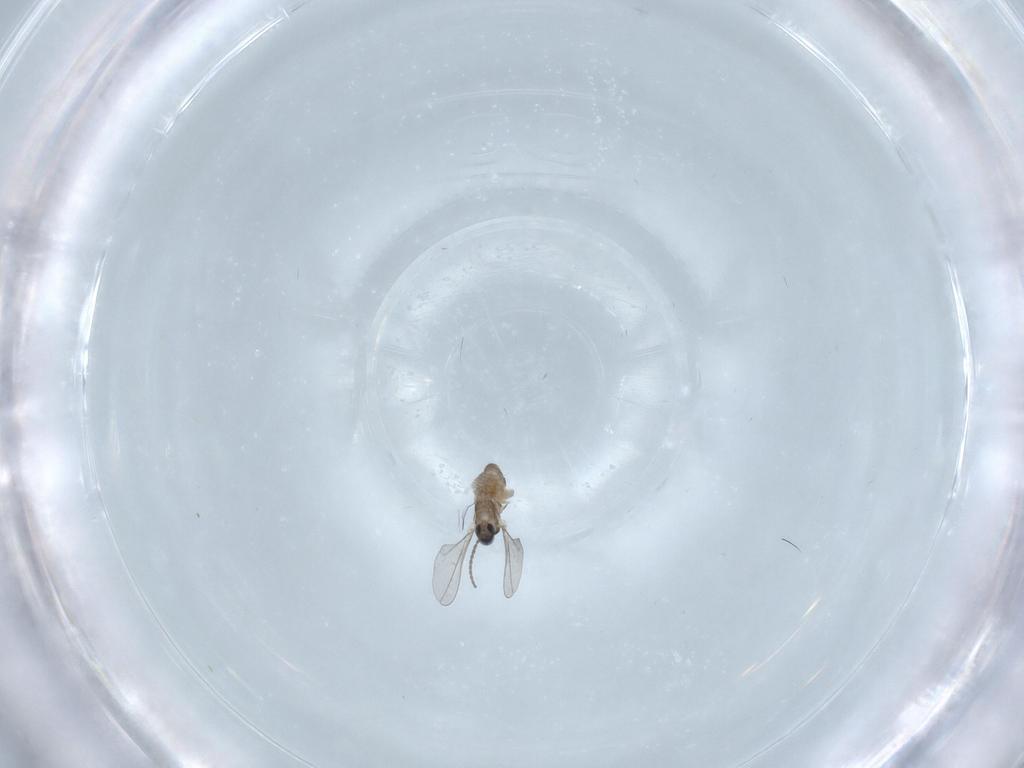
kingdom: Animalia
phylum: Arthropoda
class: Insecta
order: Diptera
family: Cecidomyiidae
